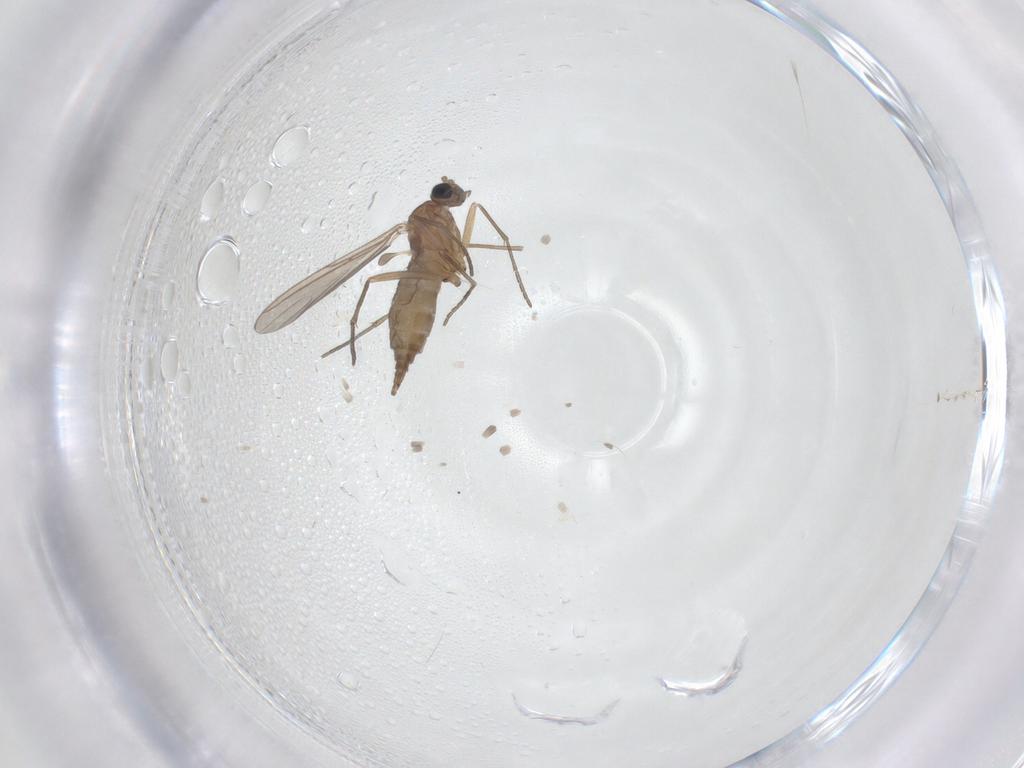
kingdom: Animalia
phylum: Arthropoda
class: Insecta
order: Diptera
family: Sciaridae
